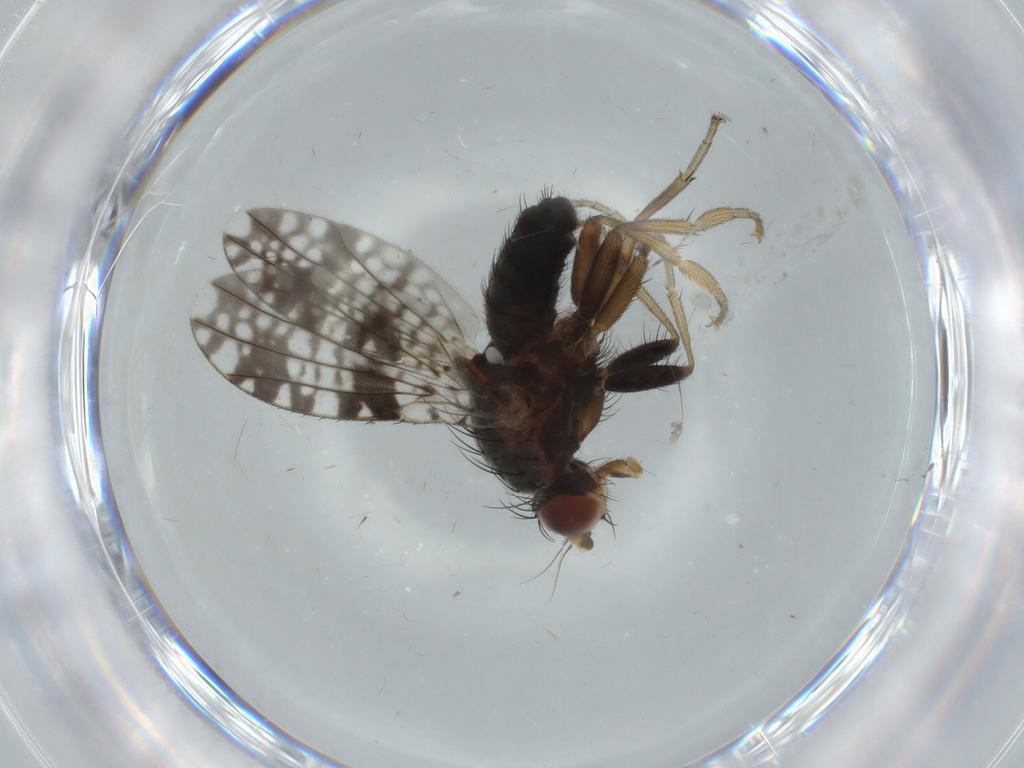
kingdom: Animalia
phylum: Arthropoda
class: Insecta
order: Diptera
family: Tephritidae
